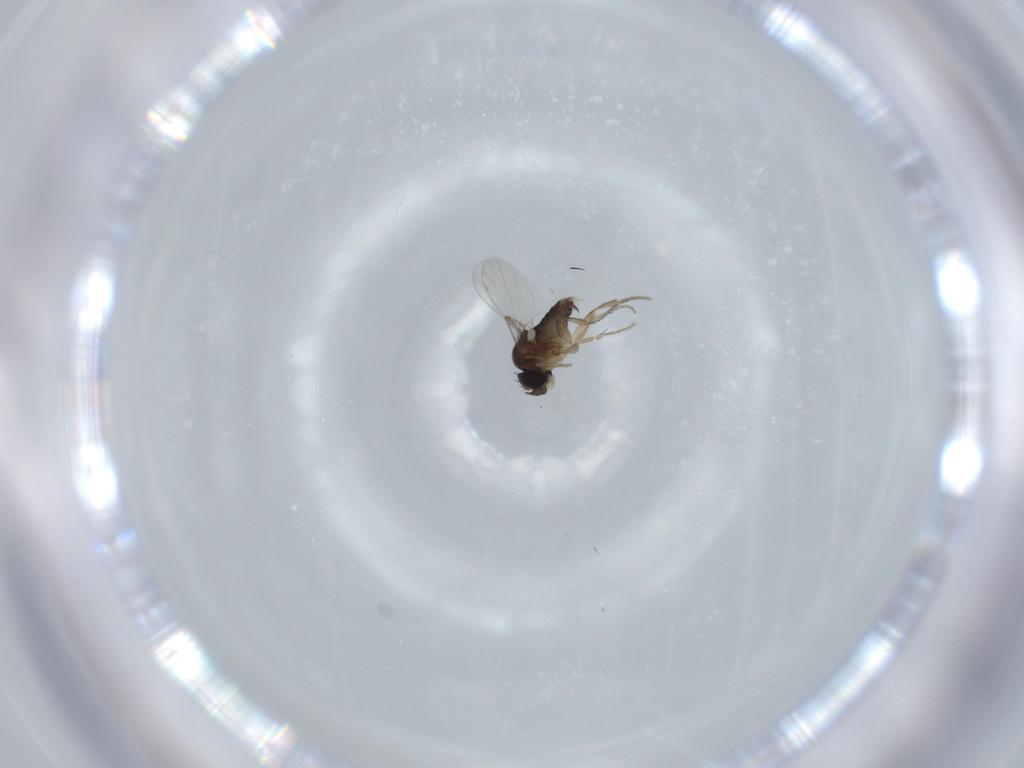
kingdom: Animalia
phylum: Arthropoda
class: Insecta
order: Diptera
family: Phoridae
